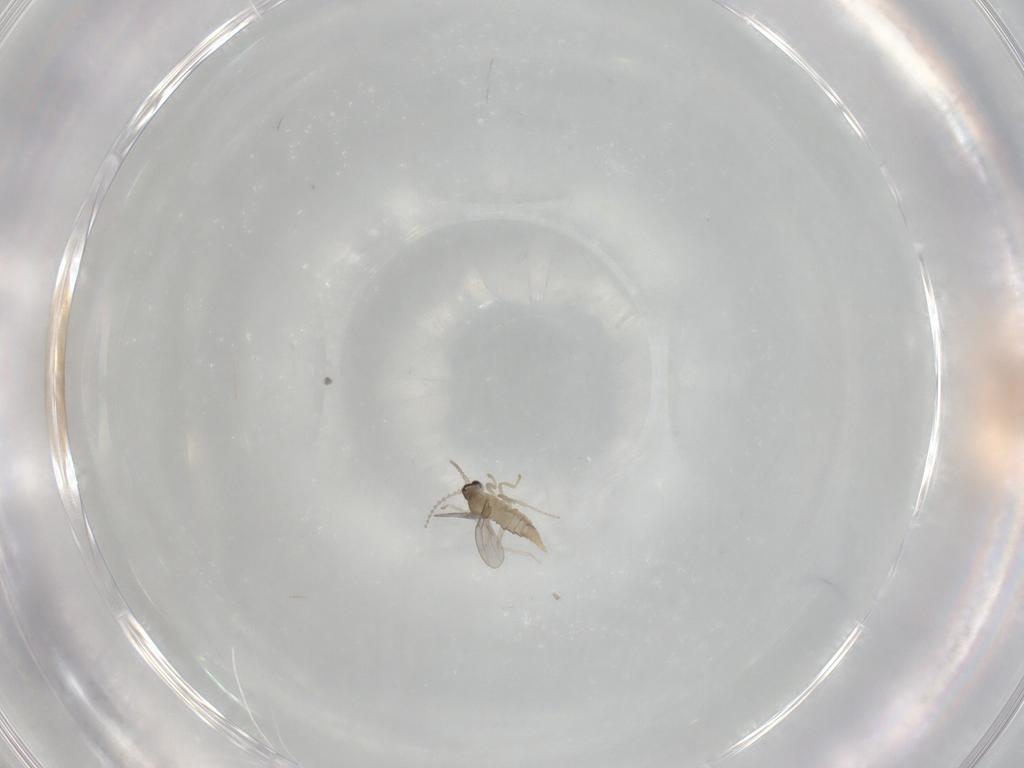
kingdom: Animalia
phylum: Arthropoda
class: Insecta
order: Diptera
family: Cecidomyiidae
